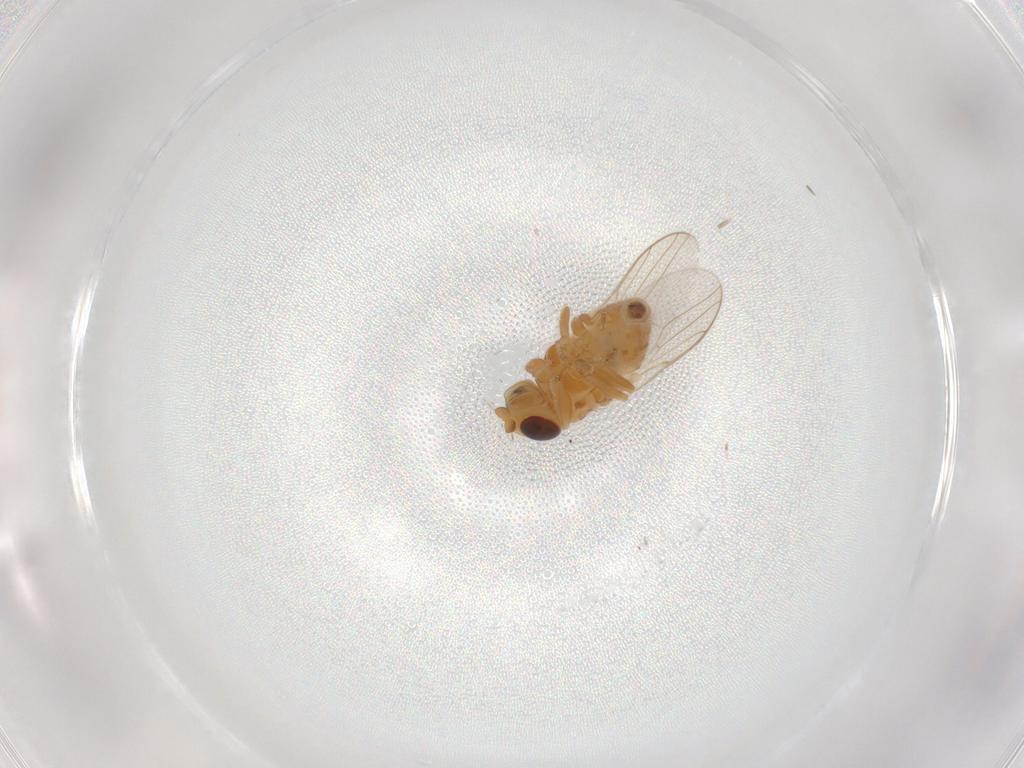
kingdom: Animalia
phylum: Arthropoda
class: Insecta
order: Diptera
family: Chloropidae
